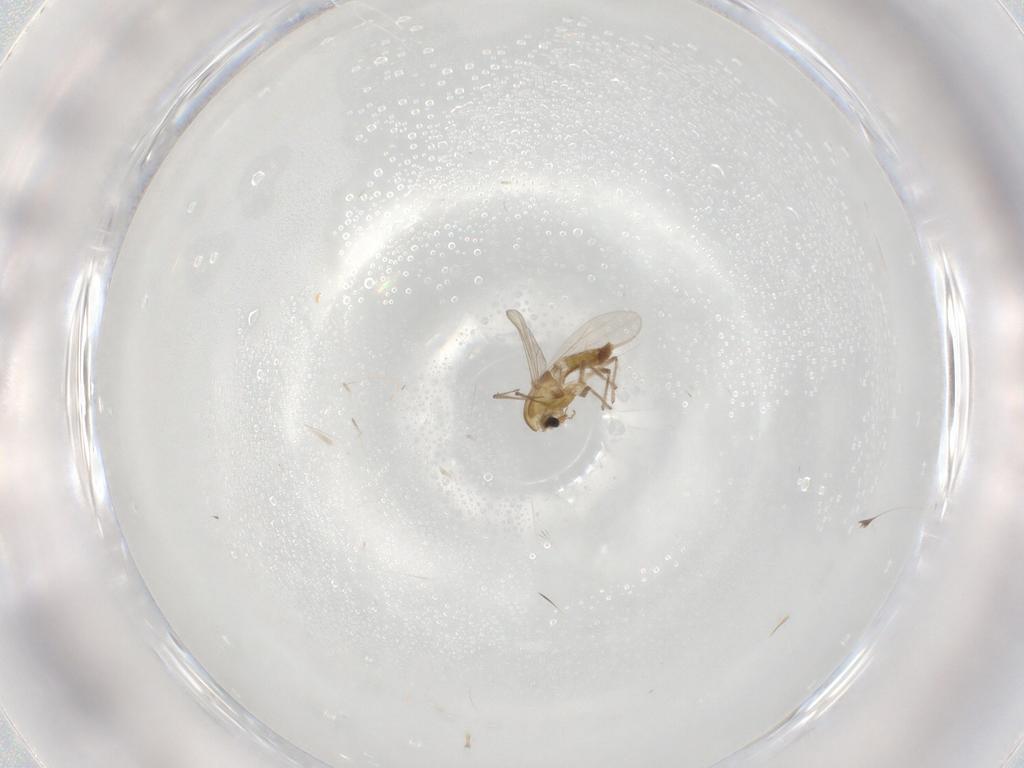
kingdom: Animalia
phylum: Arthropoda
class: Insecta
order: Diptera
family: Chironomidae
